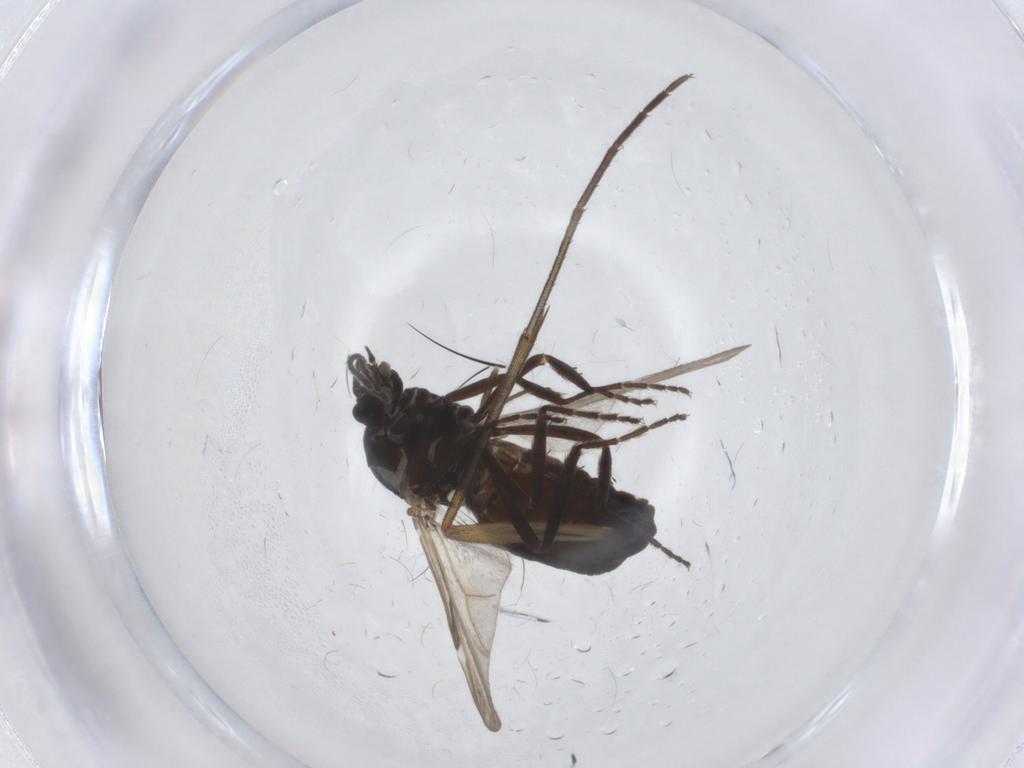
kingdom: Animalia
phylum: Arthropoda
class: Insecta
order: Diptera
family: Sciaridae
